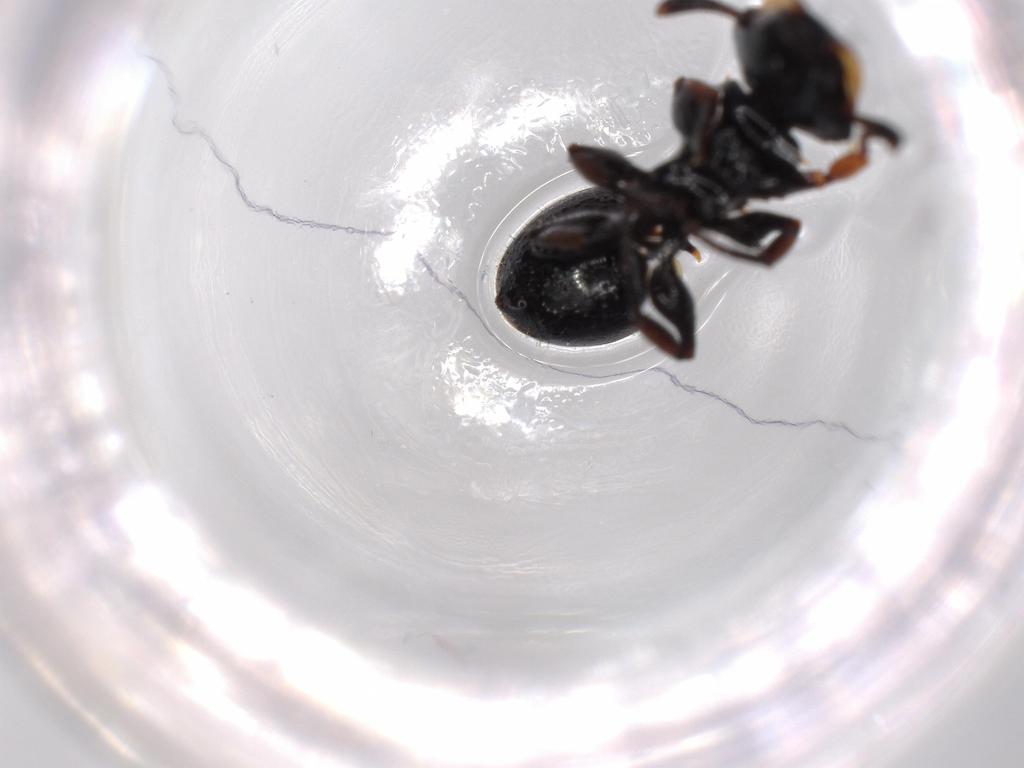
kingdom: Animalia
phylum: Arthropoda
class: Insecta
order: Hymenoptera
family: Formicidae
